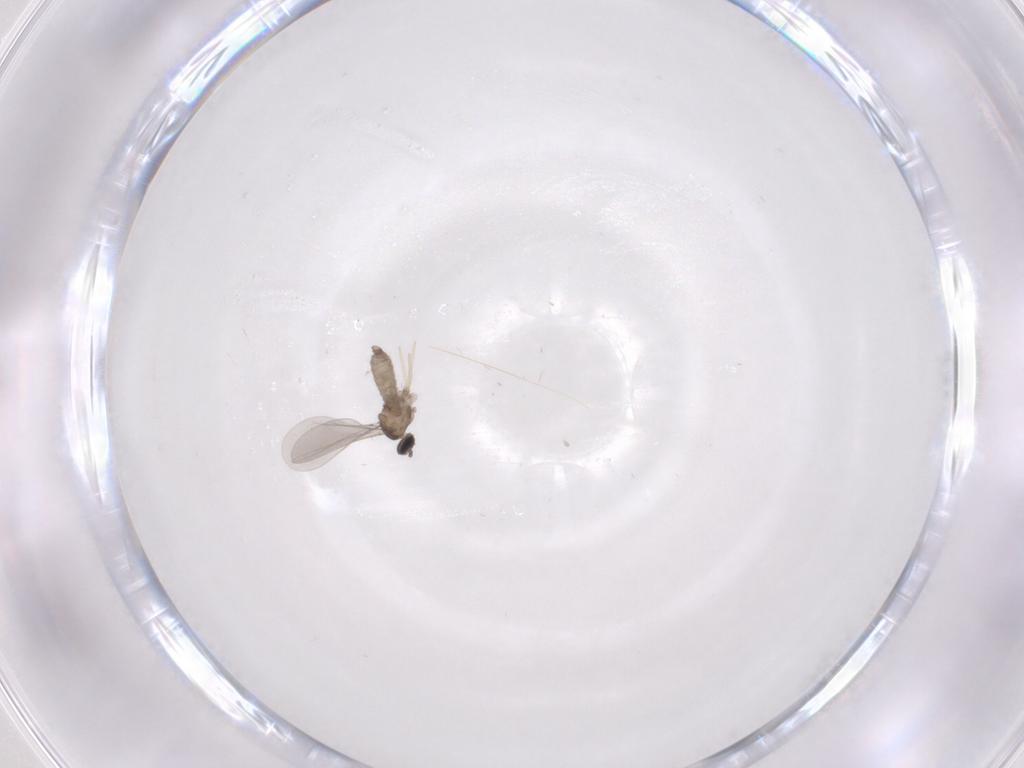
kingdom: Animalia
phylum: Arthropoda
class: Insecta
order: Diptera
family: Cecidomyiidae
